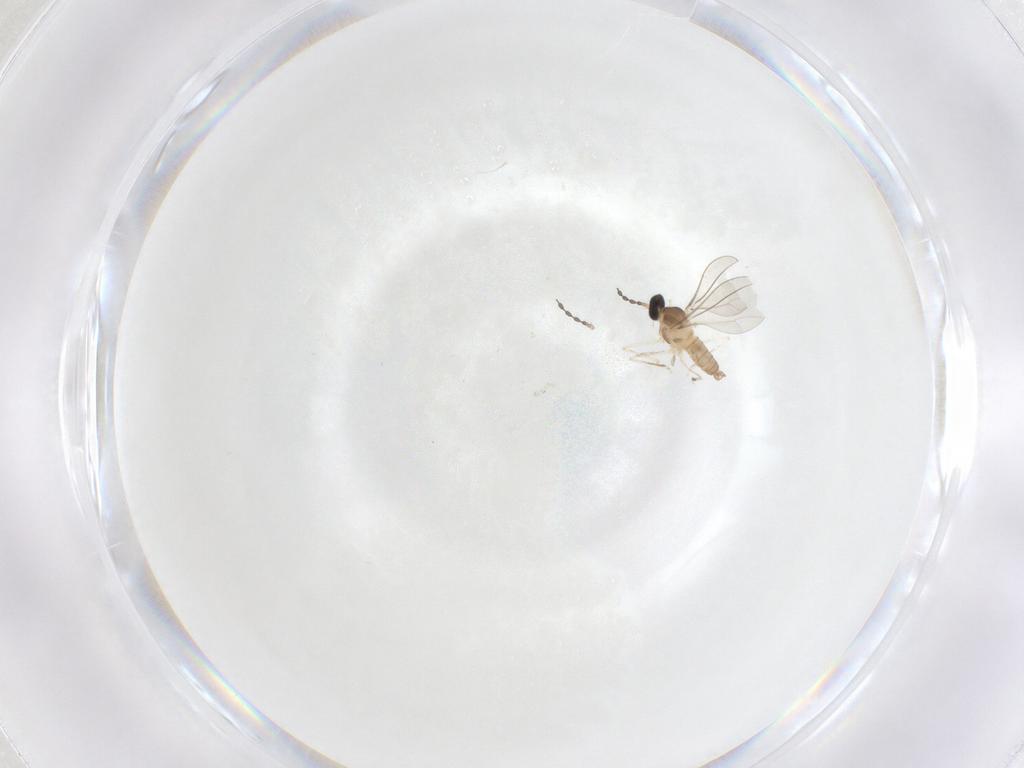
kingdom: Animalia
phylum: Arthropoda
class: Insecta
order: Diptera
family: Cecidomyiidae
